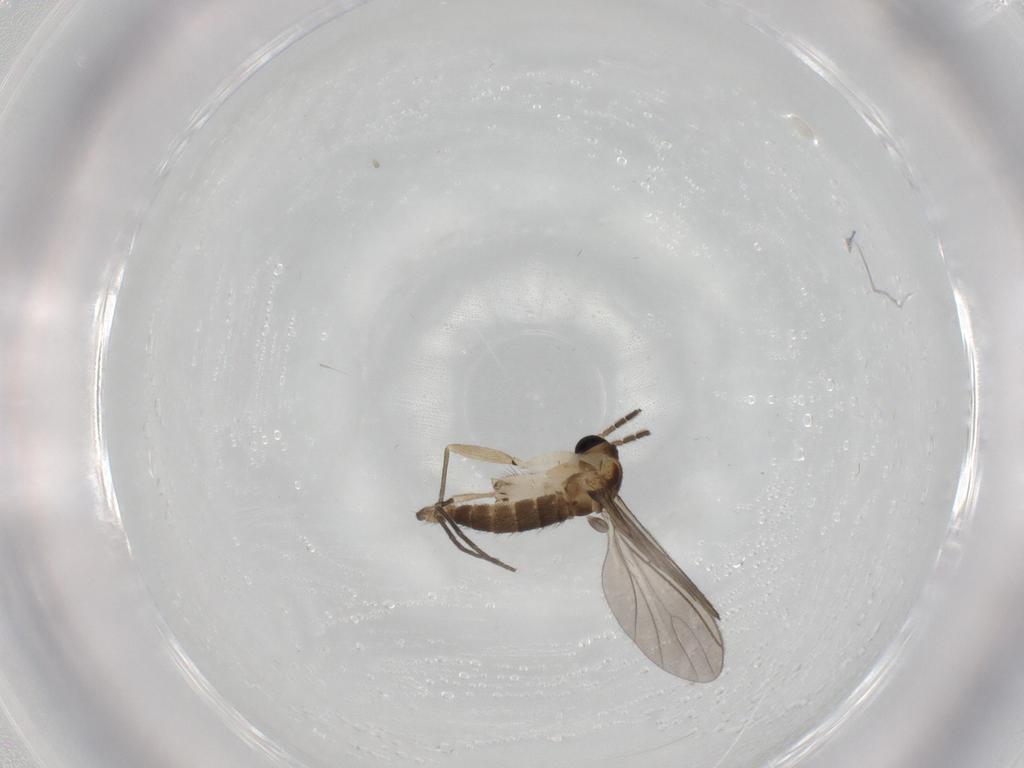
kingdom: Animalia
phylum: Arthropoda
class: Insecta
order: Diptera
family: Sciaridae
